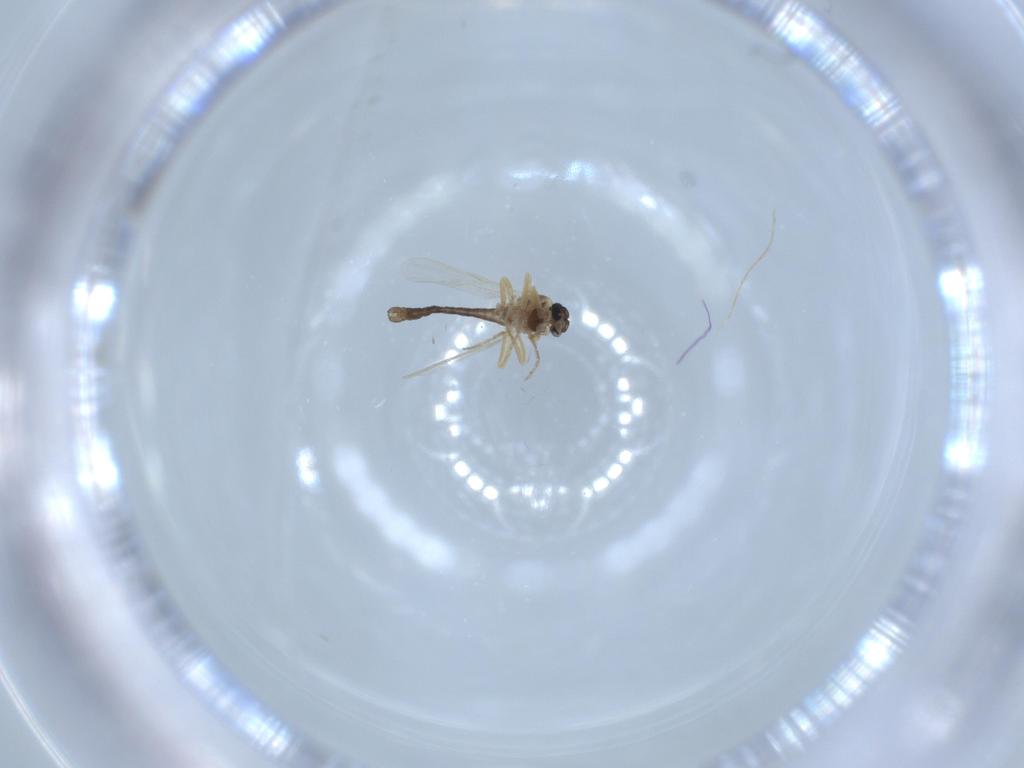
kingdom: Animalia
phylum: Arthropoda
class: Insecta
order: Diptera
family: Ceratopogonidae
